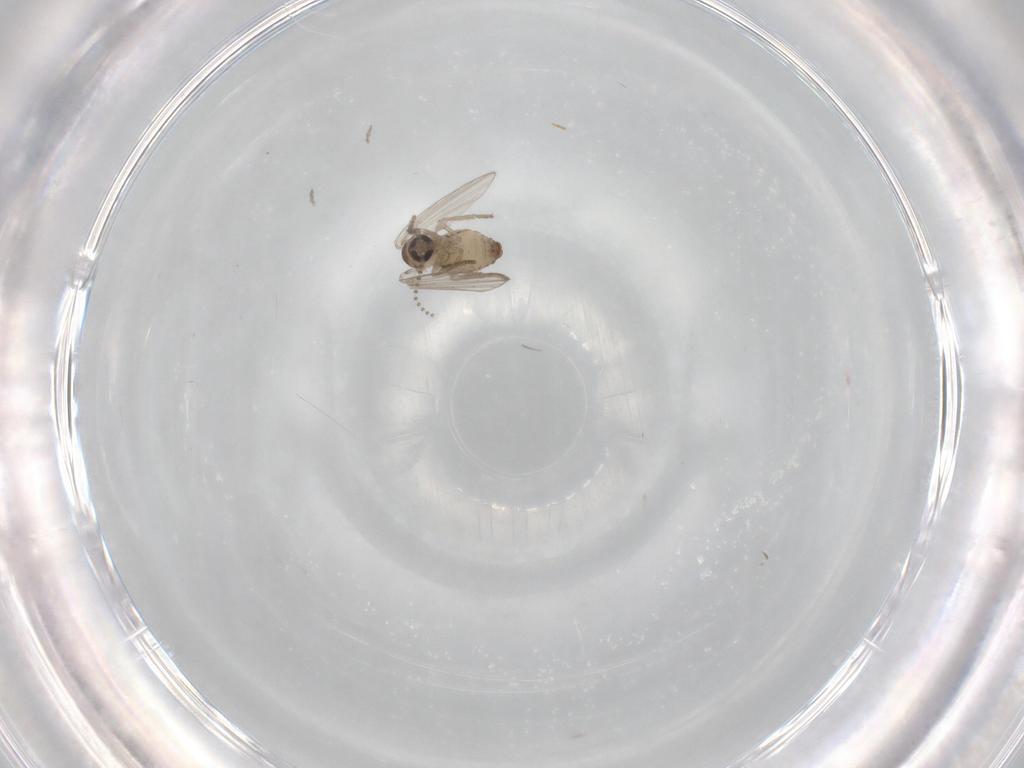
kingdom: Animalia
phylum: Arthropoda
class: Insecta
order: Diptera
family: Psychodidae
